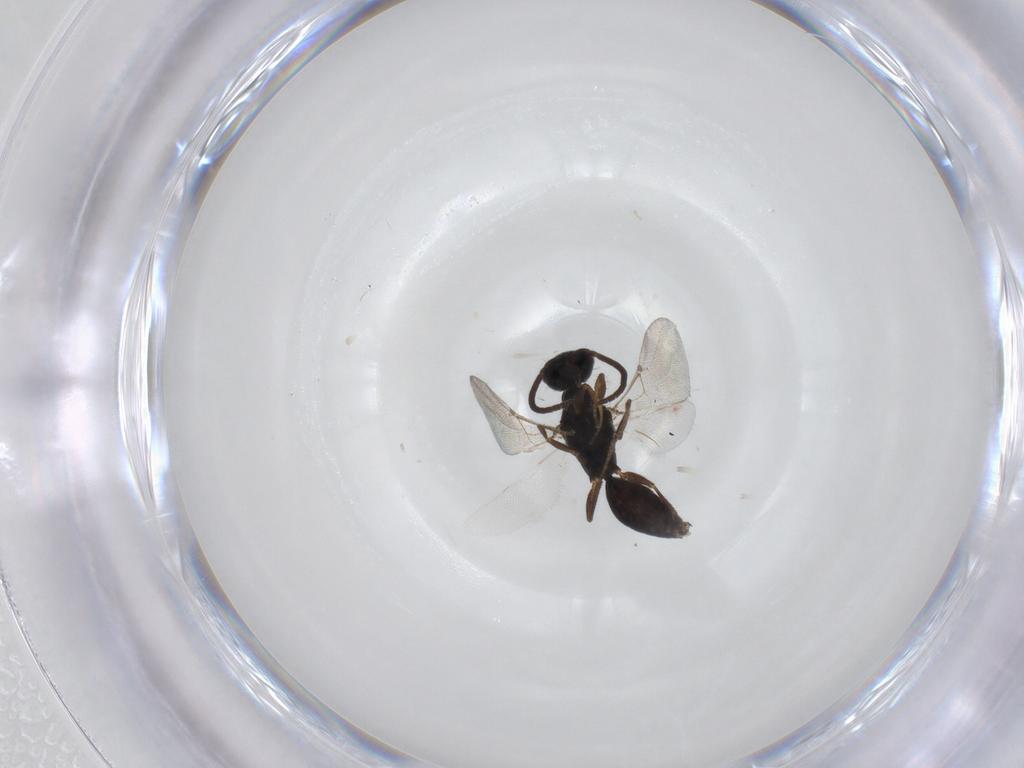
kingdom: Animalia
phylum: Arthropoda
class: Insecta
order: Hymenoptera
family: Bethylidae
